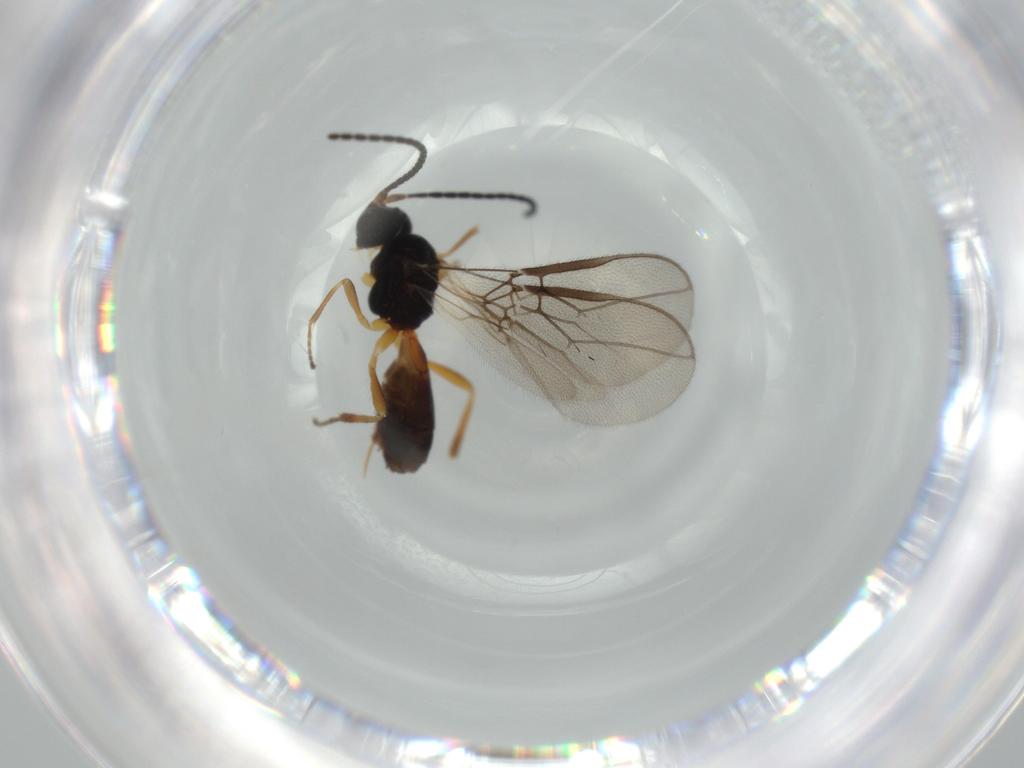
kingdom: Animalia
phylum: Arthropoda
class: Insecta
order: Hymenoptera
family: Braconidae
